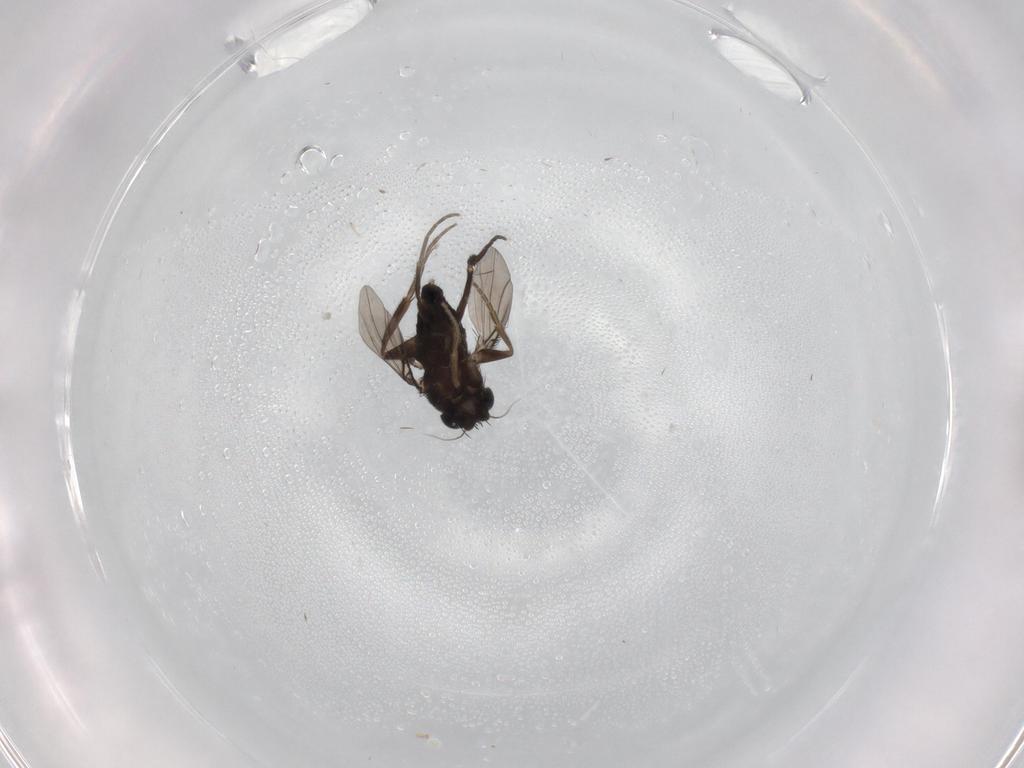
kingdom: Animalia
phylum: Arthropoda
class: Insecta
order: Diptera
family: Phoridae
